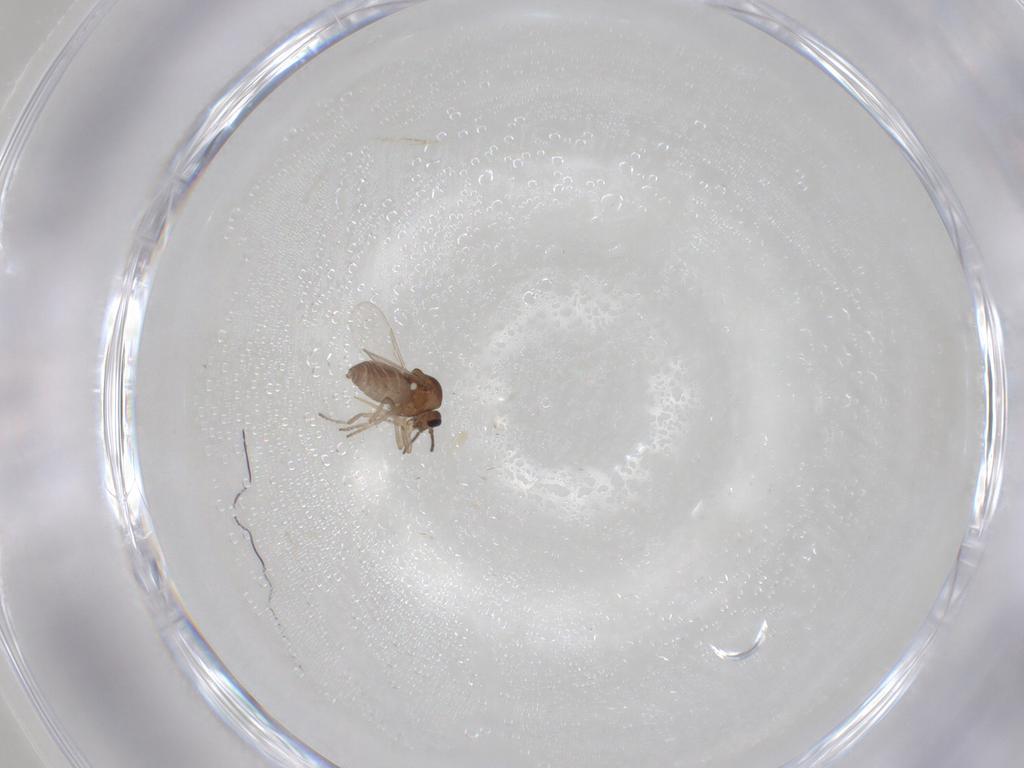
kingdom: Animalia
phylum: Arthropoda
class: Insecta
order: Diptera
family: Ceratopogonidae
